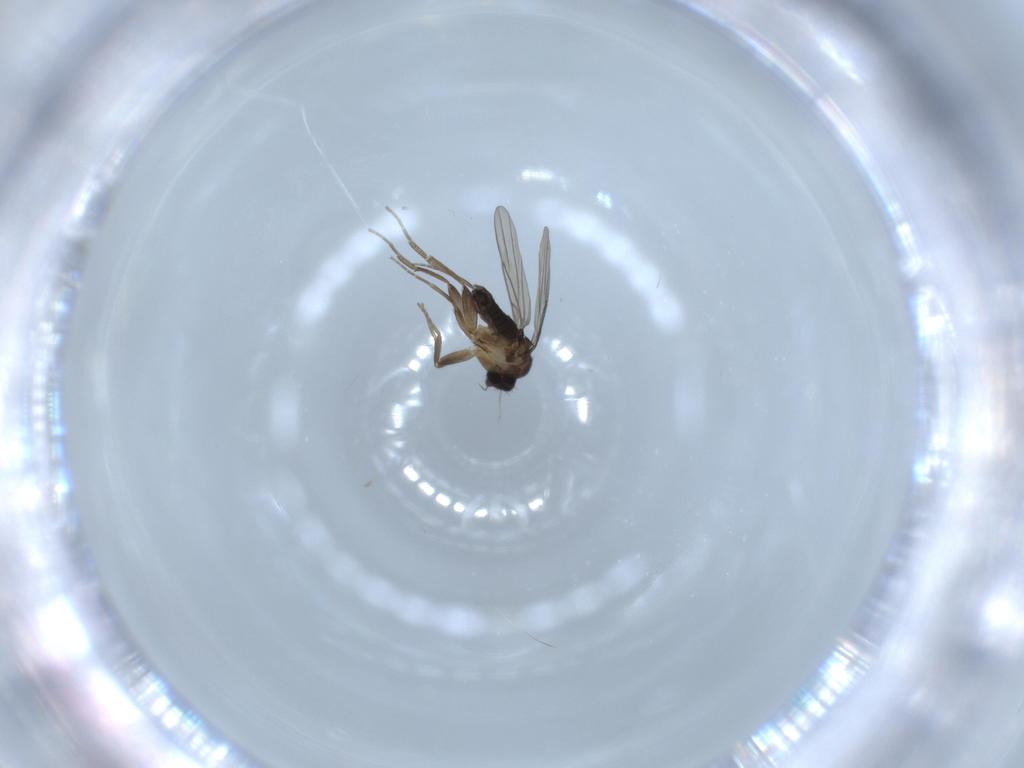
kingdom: Animalia
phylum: Arthropoda
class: Insecta
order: Diptera
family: Phoridae
